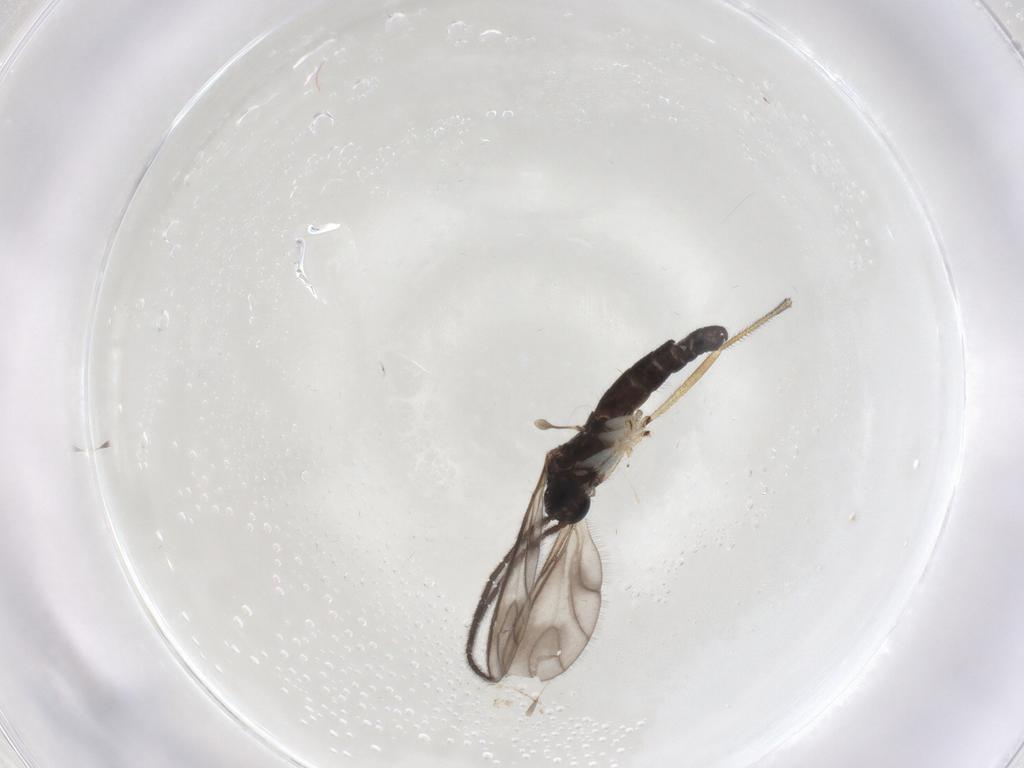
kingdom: Animalia
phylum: Arthropoda
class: Insecta
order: Diptera
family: Sciaridae
